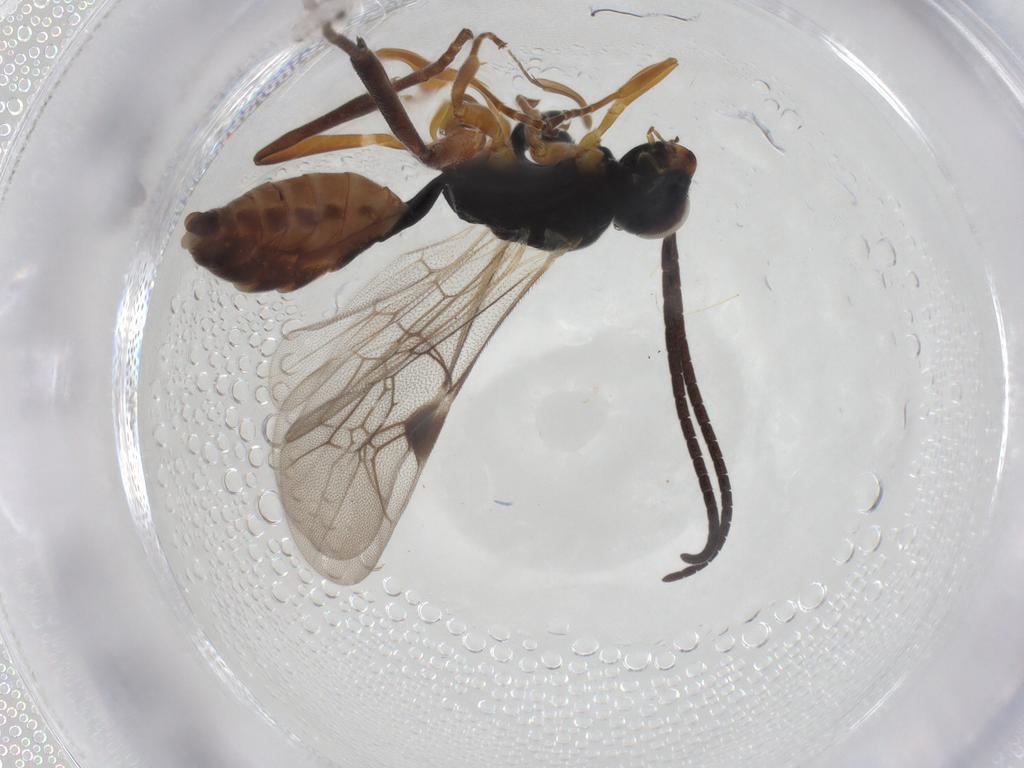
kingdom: Animalia
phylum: Arthropoda
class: Insecta
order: Hymenoptera
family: Ichneumonidae
